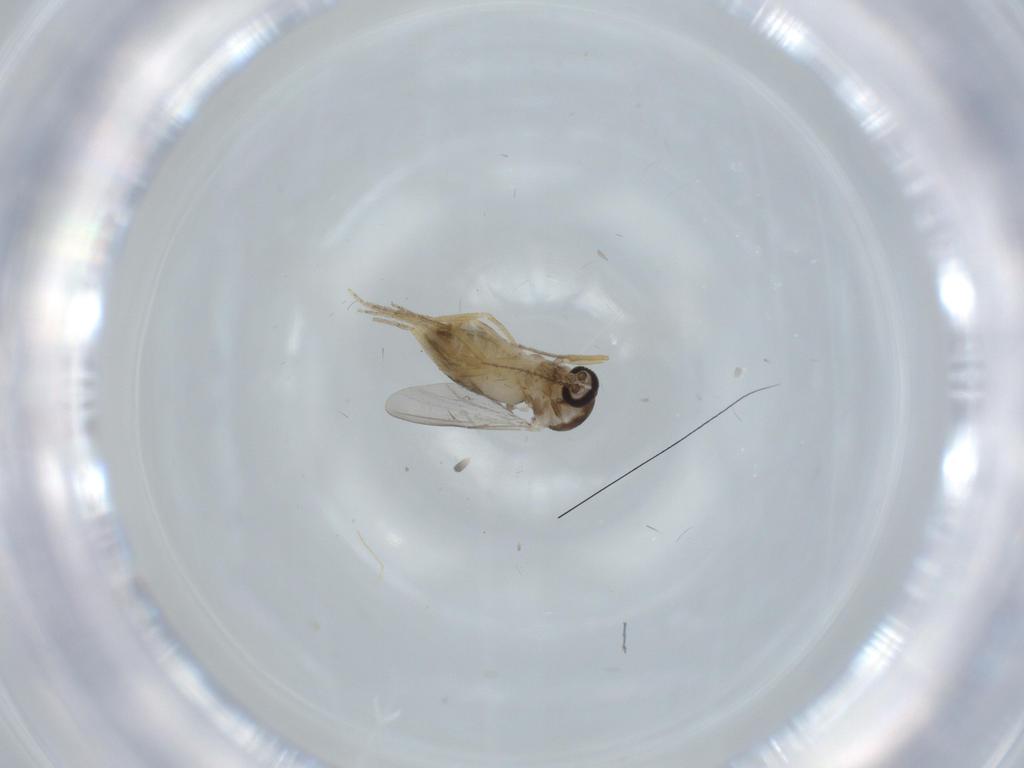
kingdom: Animalia
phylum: Arthropoda
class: Insecta
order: Diptera
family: Ceratopogonidae
